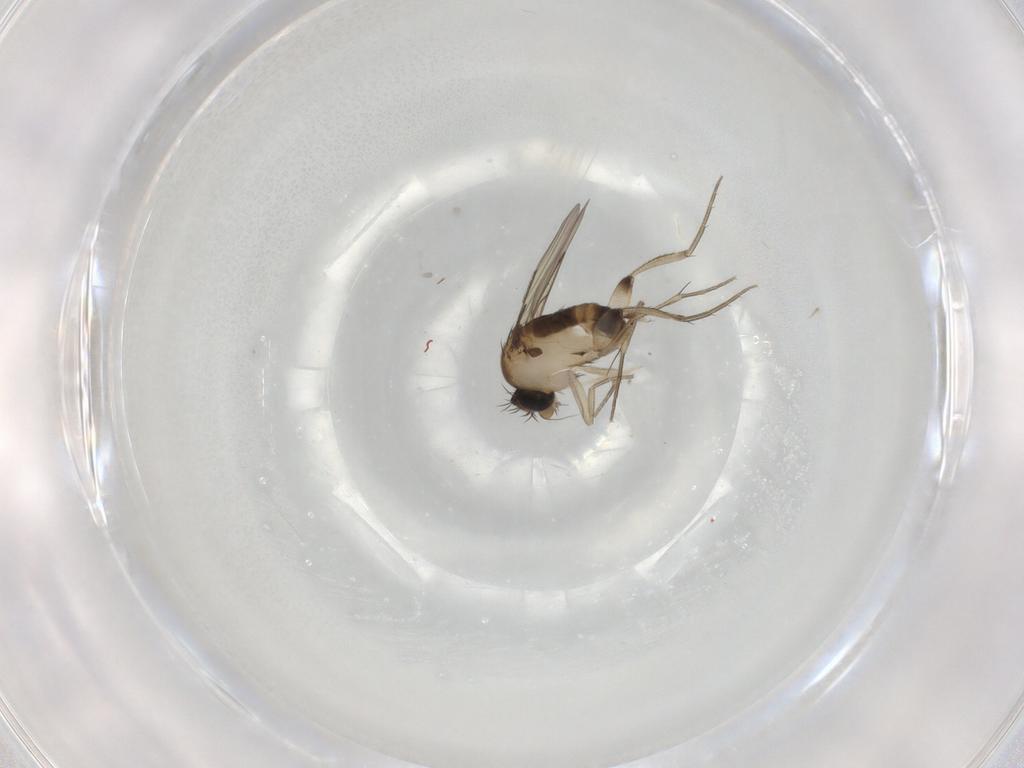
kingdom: Animalia
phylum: Arthropoda
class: Insecta
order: Diptera
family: Phoridae
